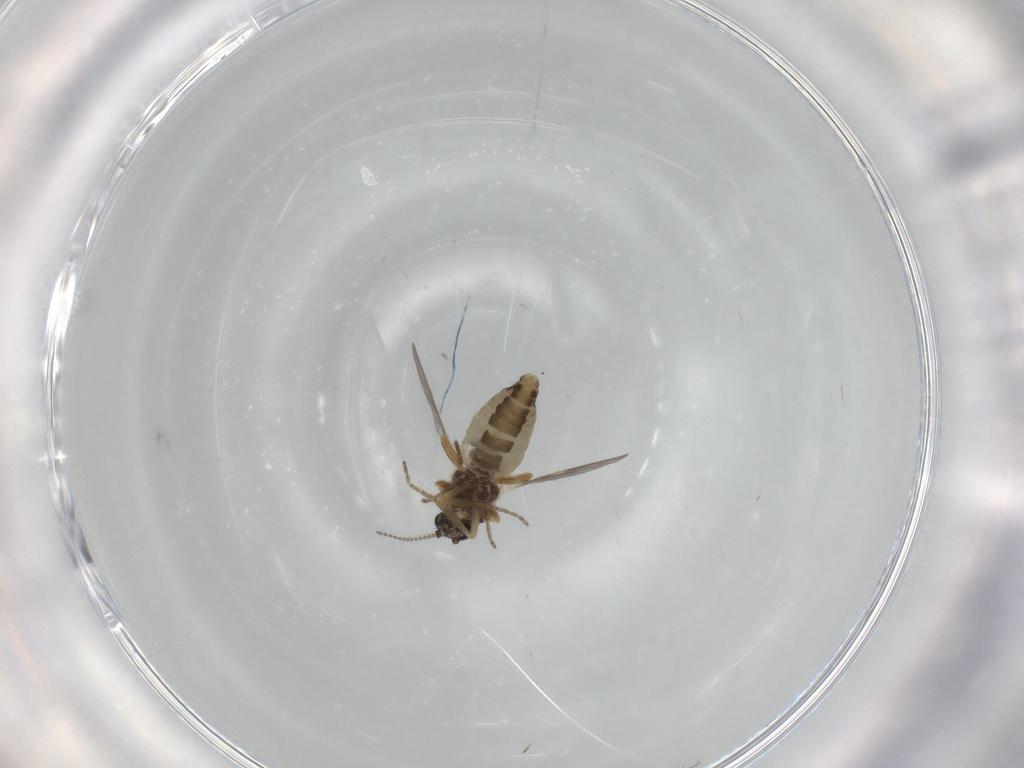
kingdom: Animalia
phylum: Arthropoda
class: Insecta
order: Diptera
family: Ceratopogonidae
